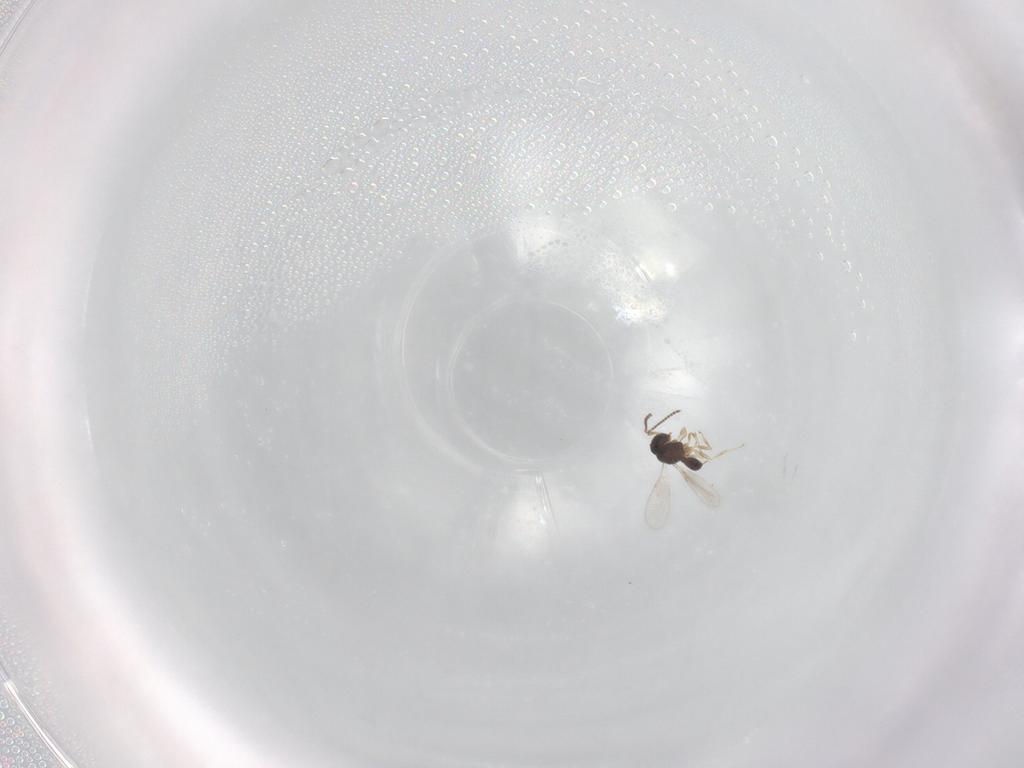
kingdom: Animalia
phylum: Arthropoda
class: Insecta
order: Hymenoptera
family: Scelionidae
